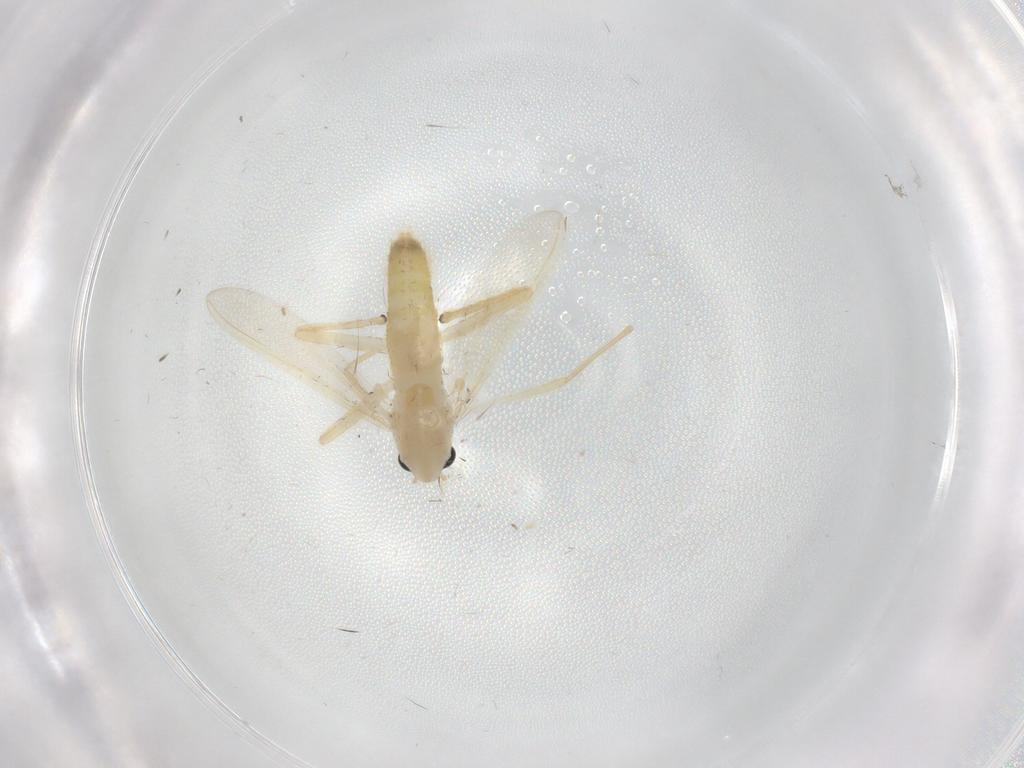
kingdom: Animalia
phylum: Arthropoda
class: Insecta
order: Diptera
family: Chironomidae
